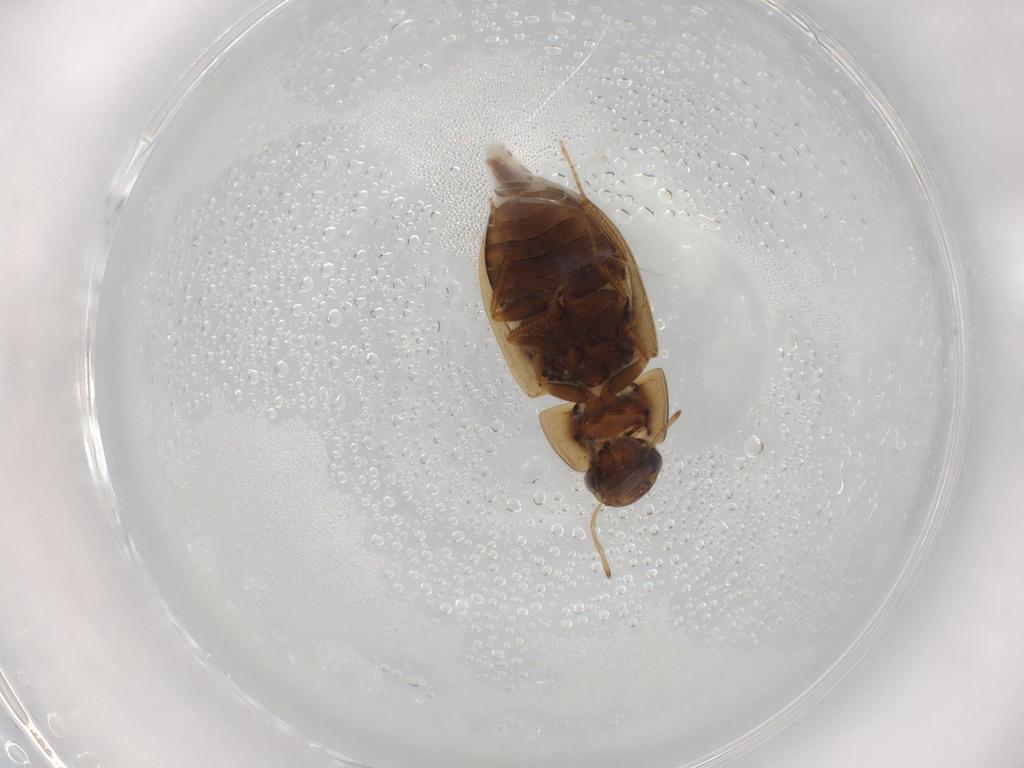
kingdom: Animalia
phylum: Arthropoda
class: Insecta
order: Coleoptera
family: Hydrophilidae
